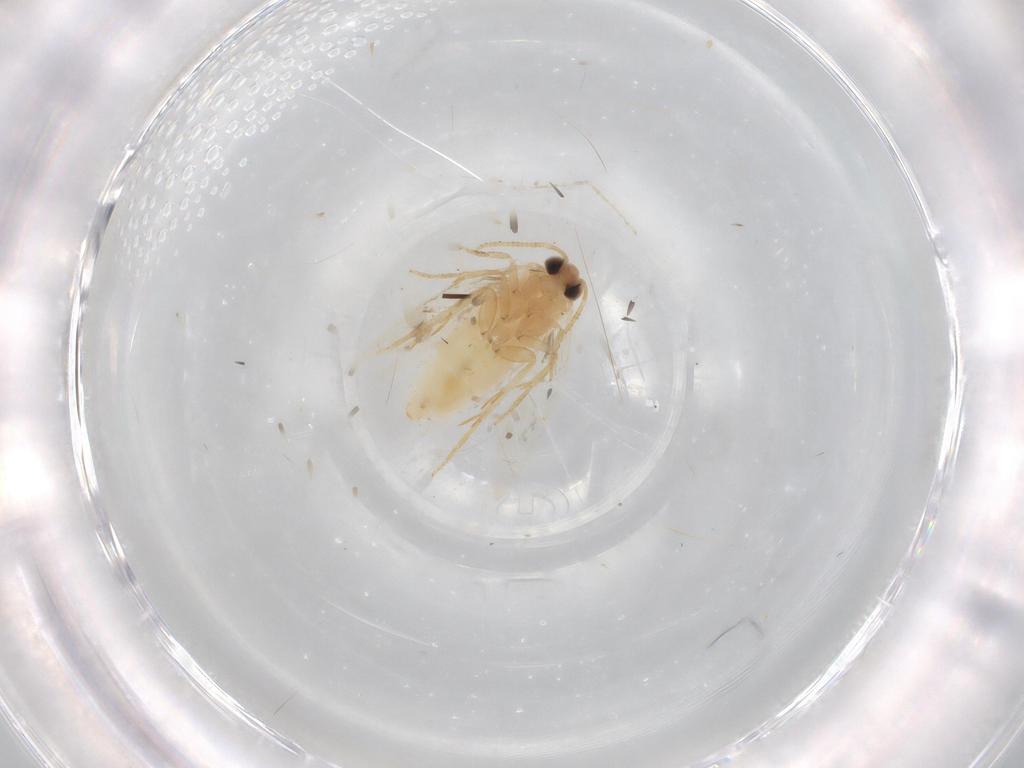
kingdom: Animalia
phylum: Arthropoda
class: Insecta
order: Lepidoptera
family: Nepticulidae
